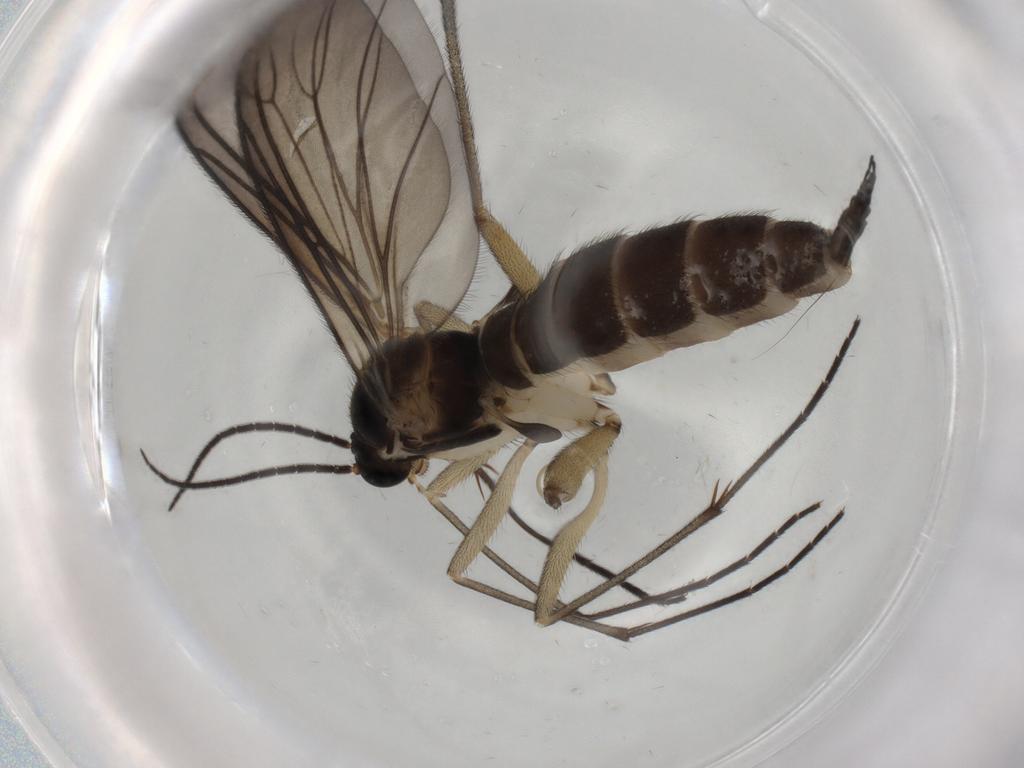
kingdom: Animalia
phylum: Arthropoda
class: Insecta
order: Diptera
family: Sciaridae
